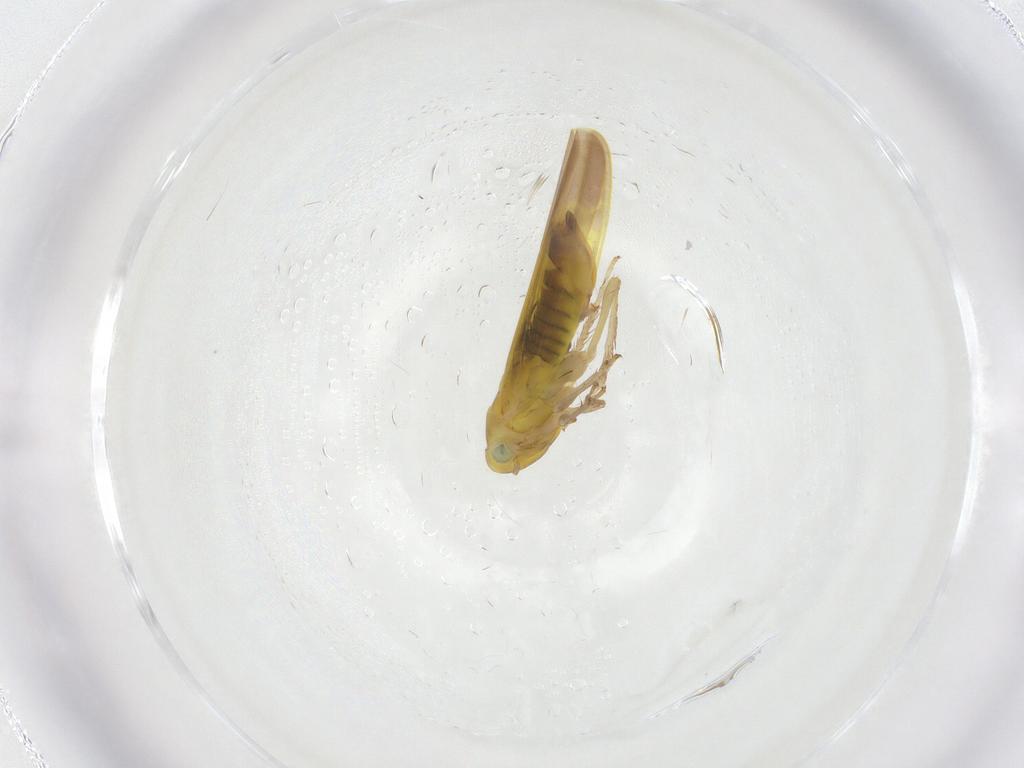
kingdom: Animalia
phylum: Arthropoda
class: Insecta
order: Hemiptera
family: Cicadellidae
